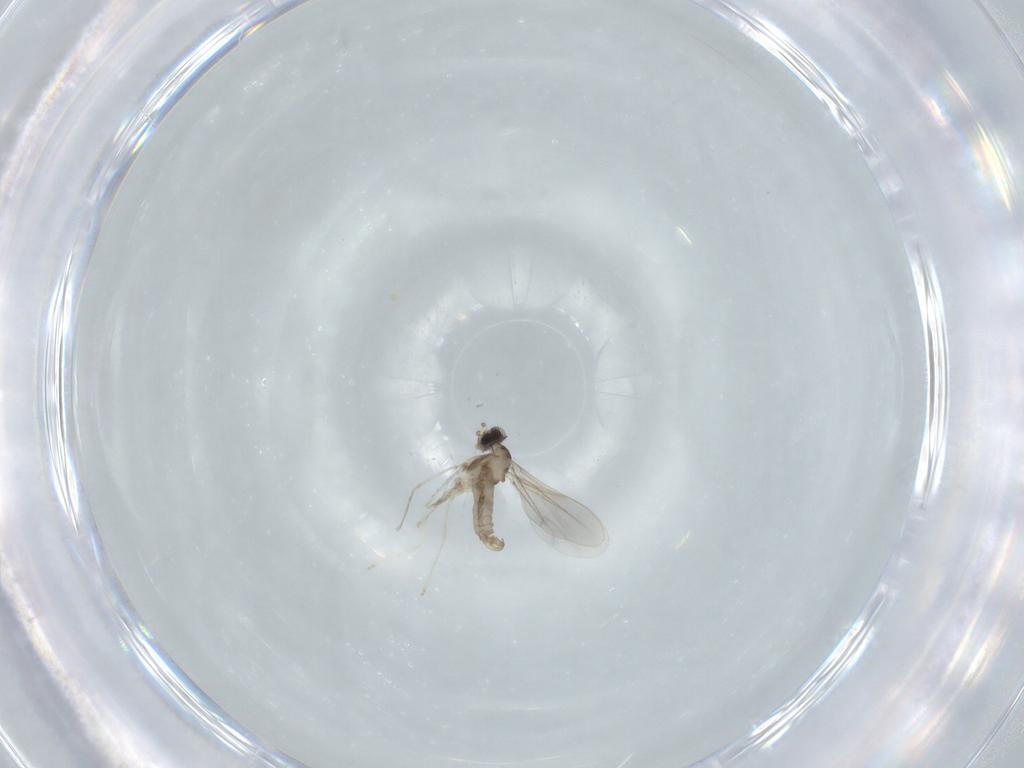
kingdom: Animalia
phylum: Arthropoda
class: Insecta
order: Diptera
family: Cecidomyiidae
